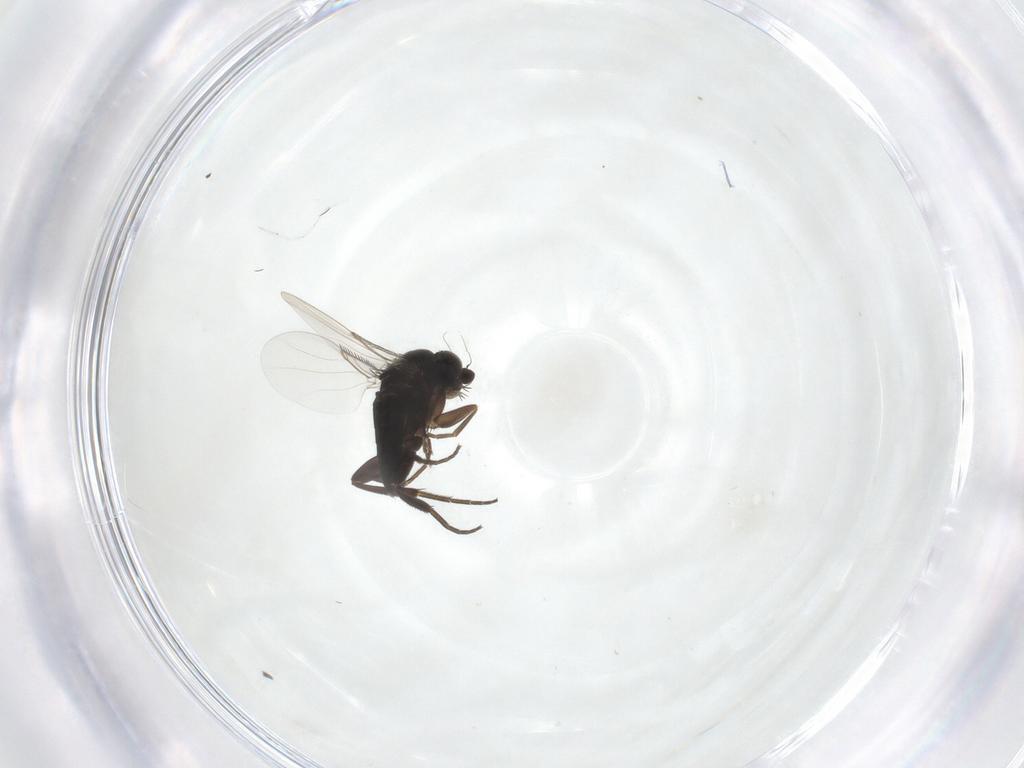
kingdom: Animalia
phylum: Arthropoda
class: Insecta
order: Diptera
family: Phoridae
